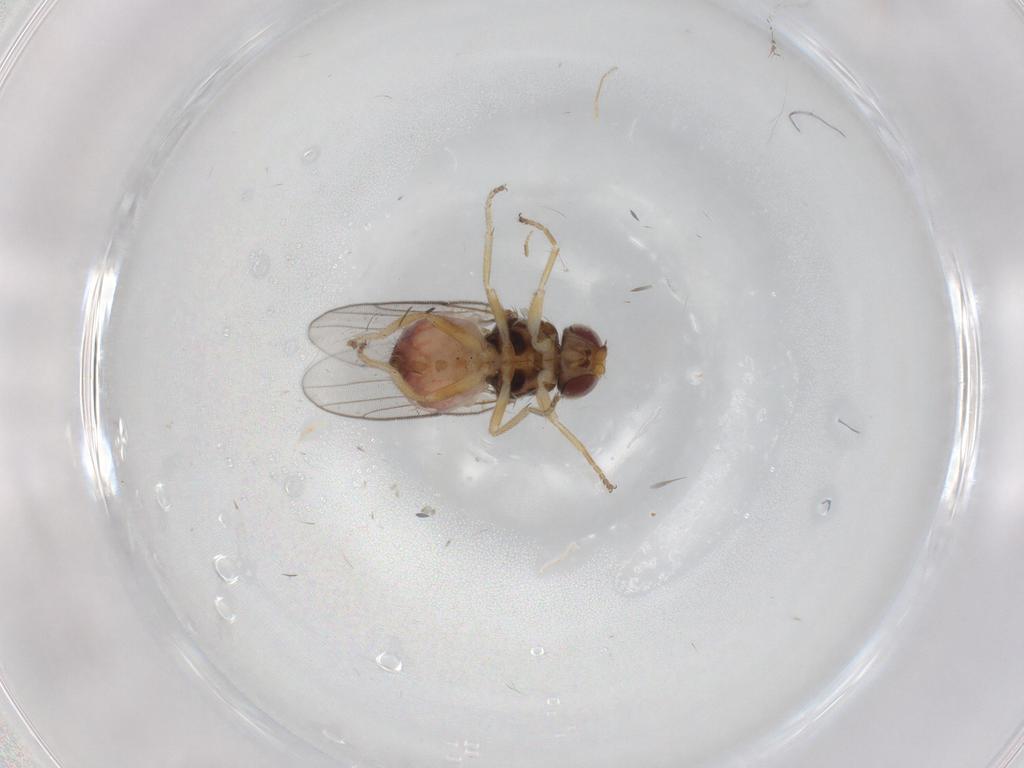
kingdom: Animalia
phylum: Arthropoda
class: Insecta
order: Diptera
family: Chloropidae
